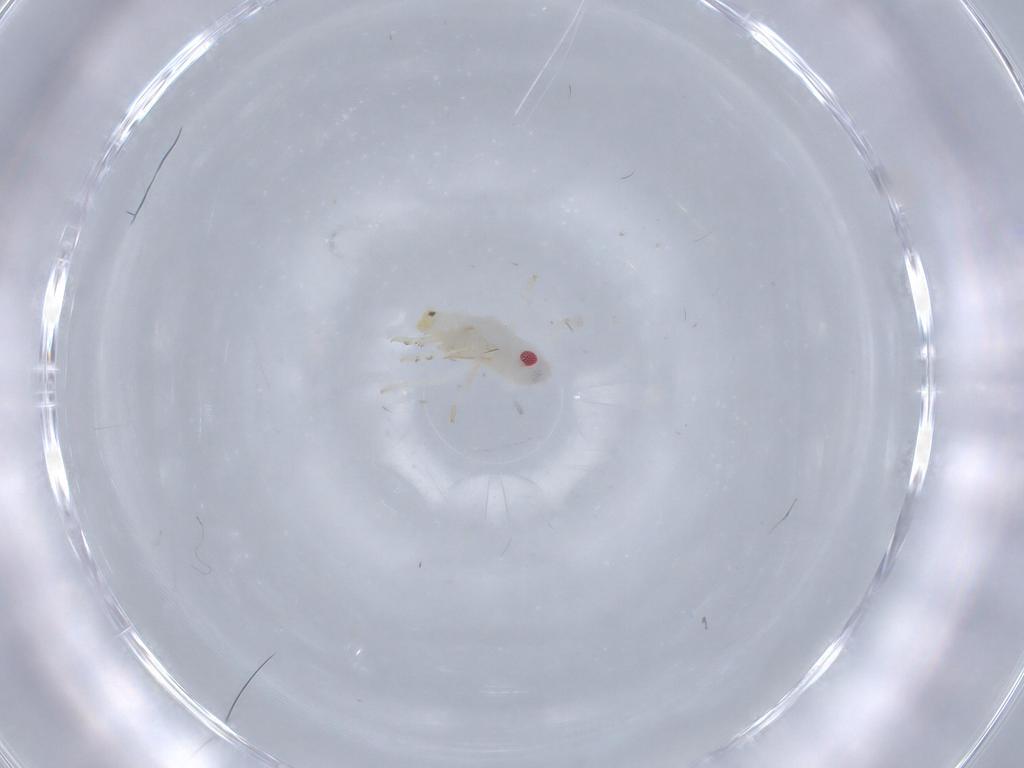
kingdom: Animalia
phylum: Arthropoda
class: Insecta
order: Hemiptera
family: Flatidae
